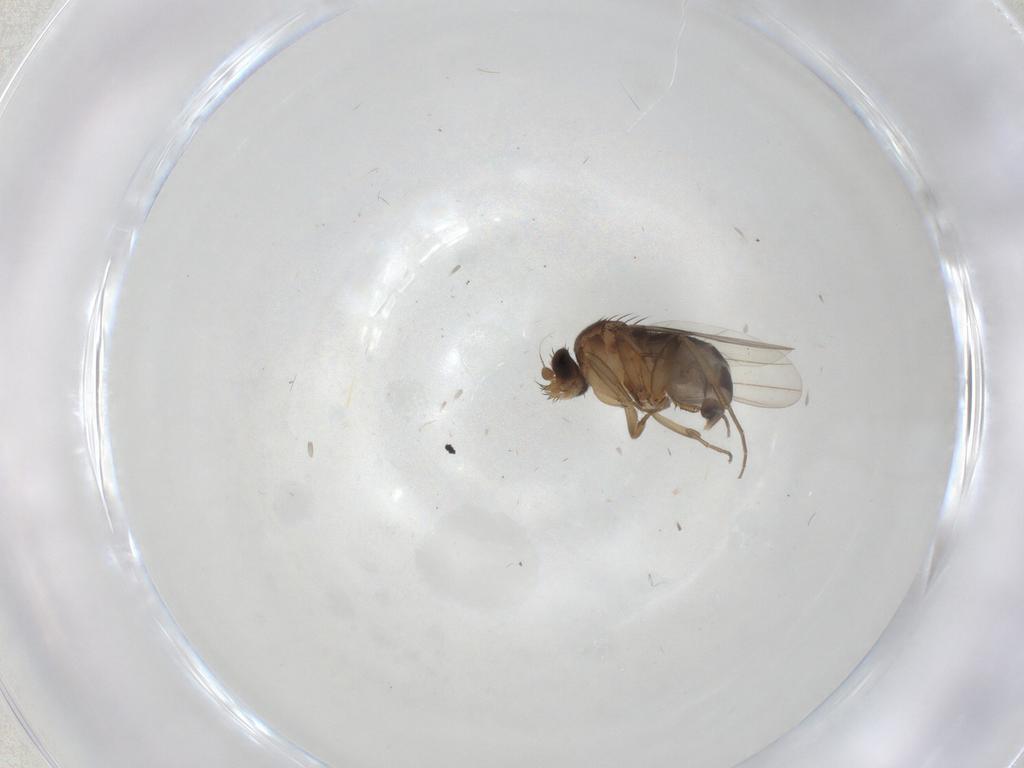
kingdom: Animalia
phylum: Arthropoda
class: Insecta
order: Diptera
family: Phoridae
